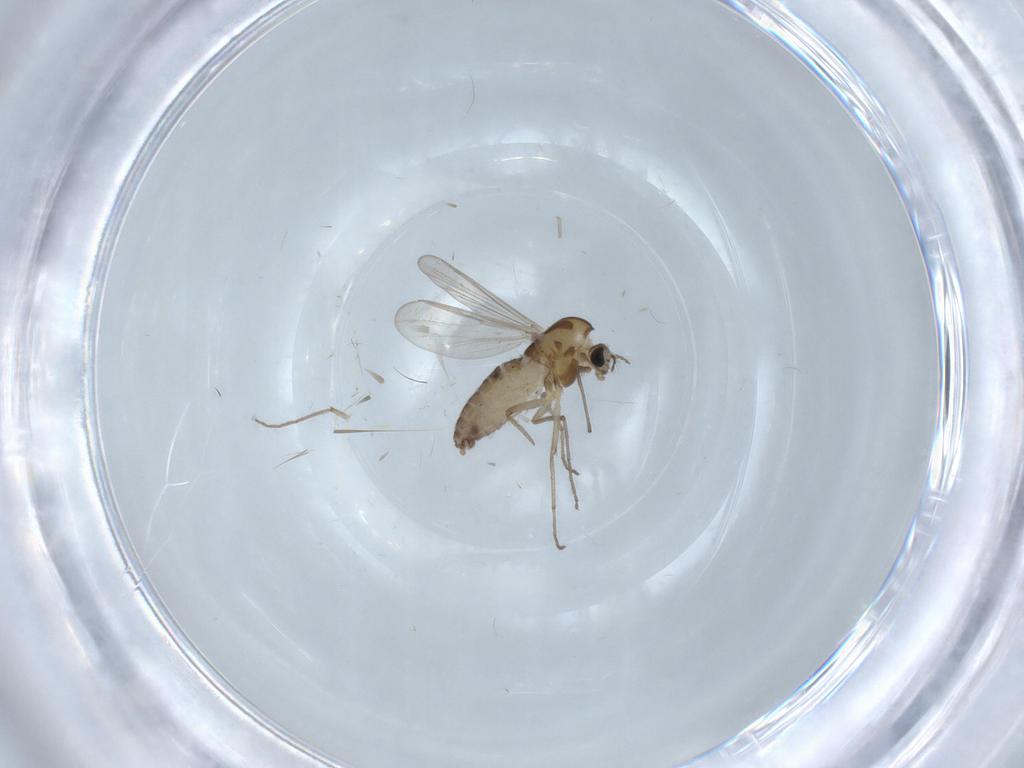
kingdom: Animalia
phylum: Arthropoda
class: Insecta
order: Diptera
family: Chironomidae
